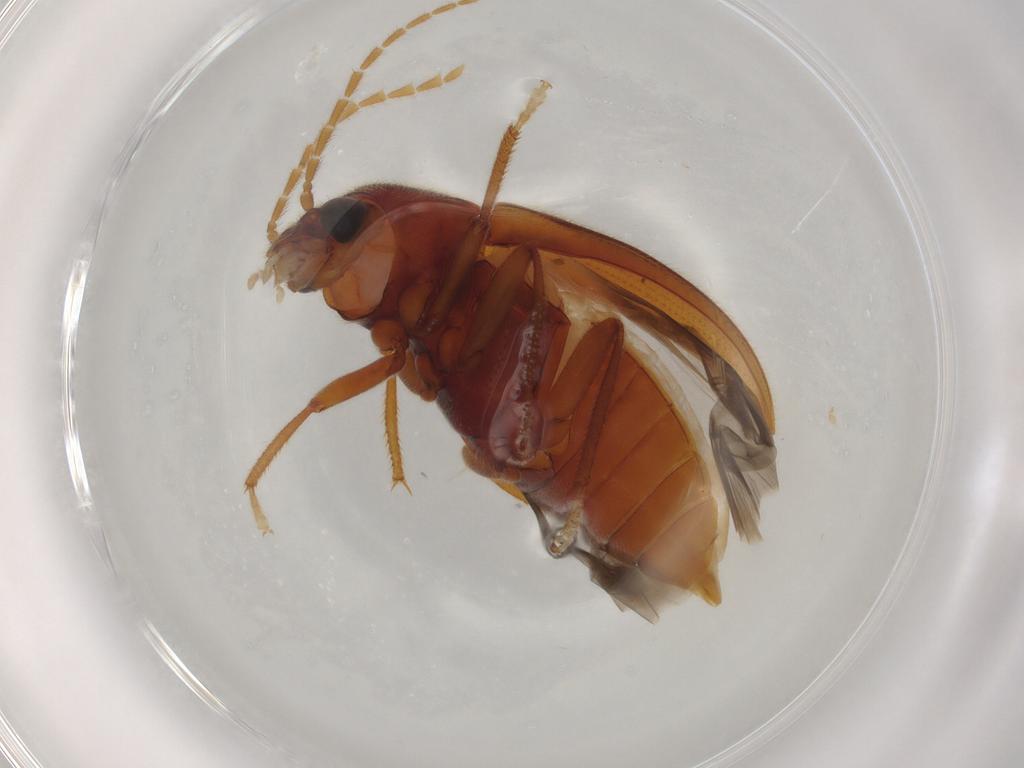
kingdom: Animalia
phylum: Arthropoda
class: Insecta
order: Coleoptera
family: Ptilodactylidae
